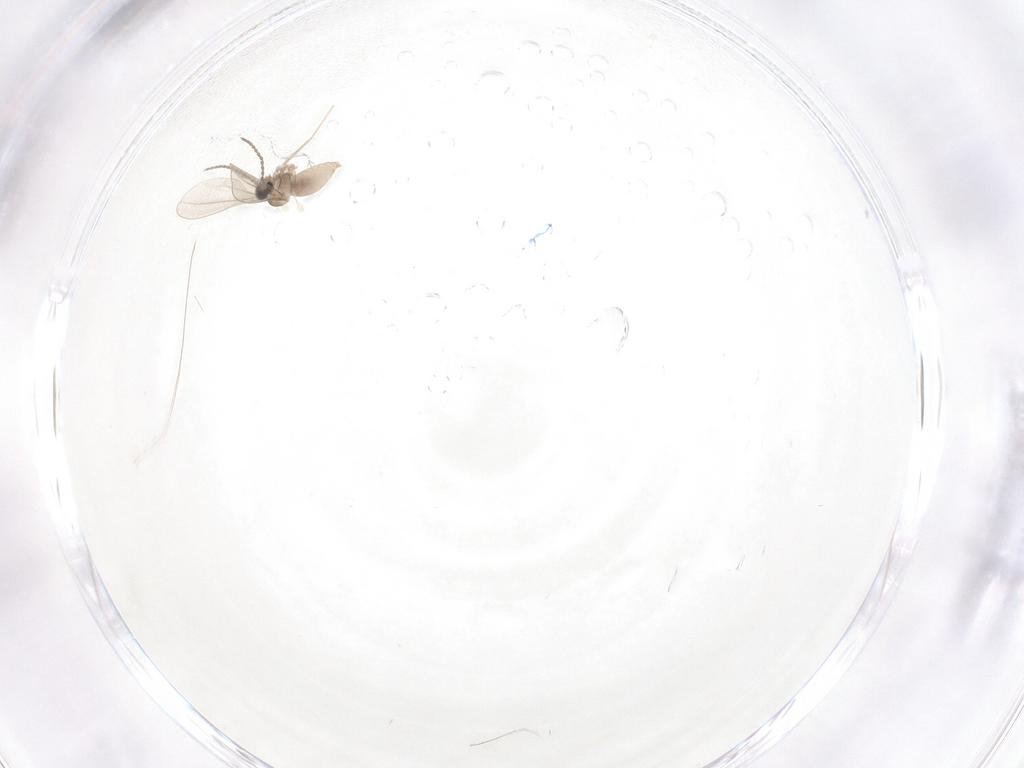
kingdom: Animalia
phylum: Arthropoda
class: Insecta
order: Diptera
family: Cecidomyiidae
